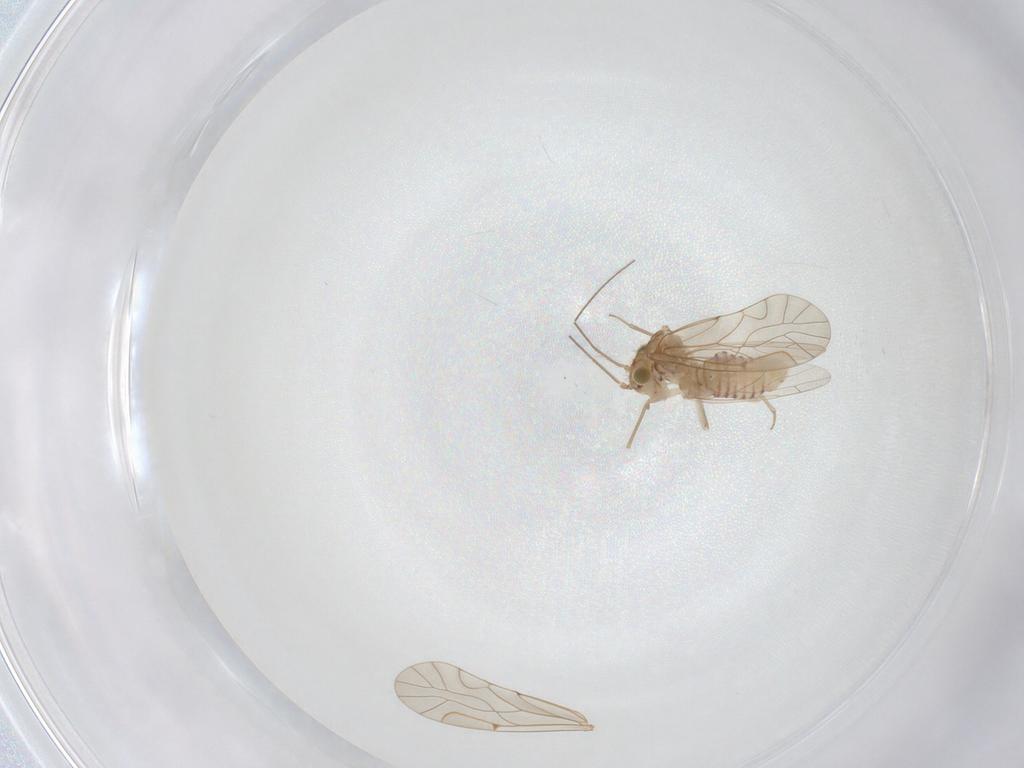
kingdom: Animalia
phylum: Arthropoda
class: Insecta
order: Psocodea
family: Lachesillidae
